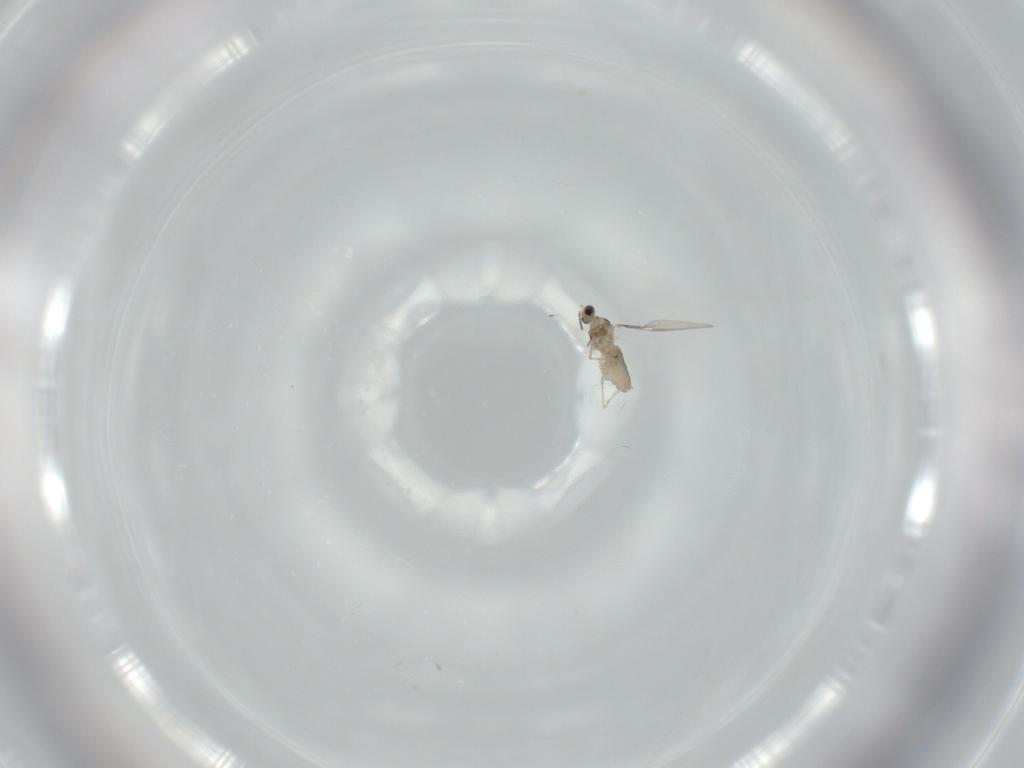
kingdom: Animalia
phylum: Arthropoda
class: Insecta
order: Diptera
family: Cecidomyiidae
